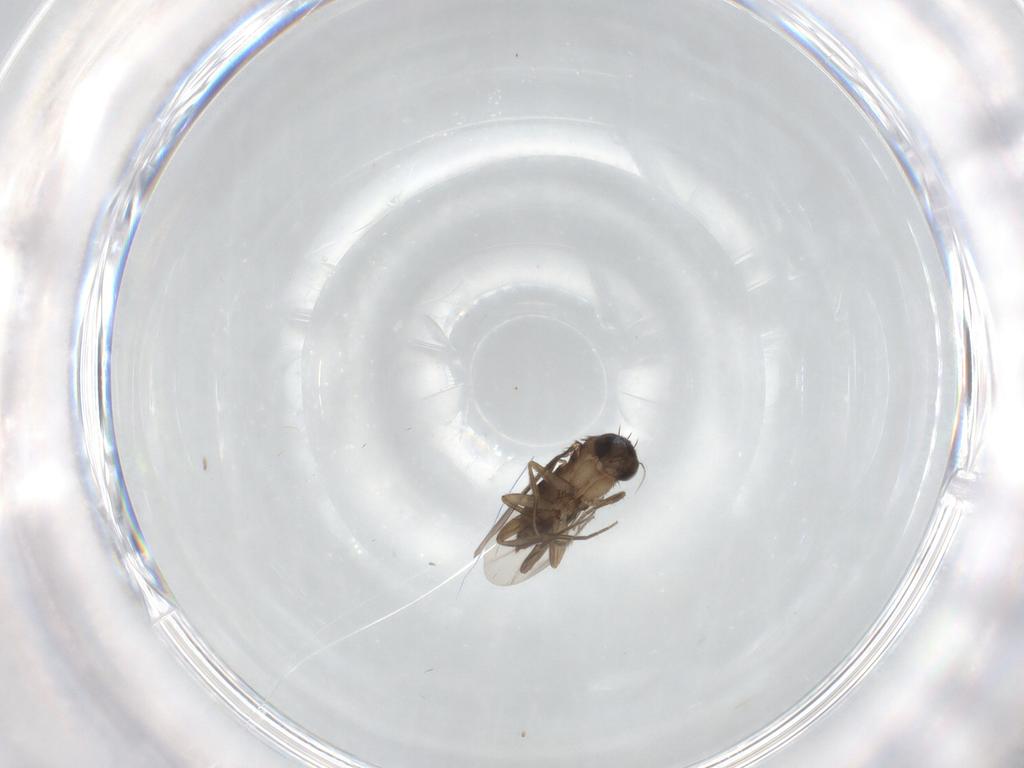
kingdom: Animalia
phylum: Arthropoda
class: Insecta
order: Diptera
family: Phoridae
